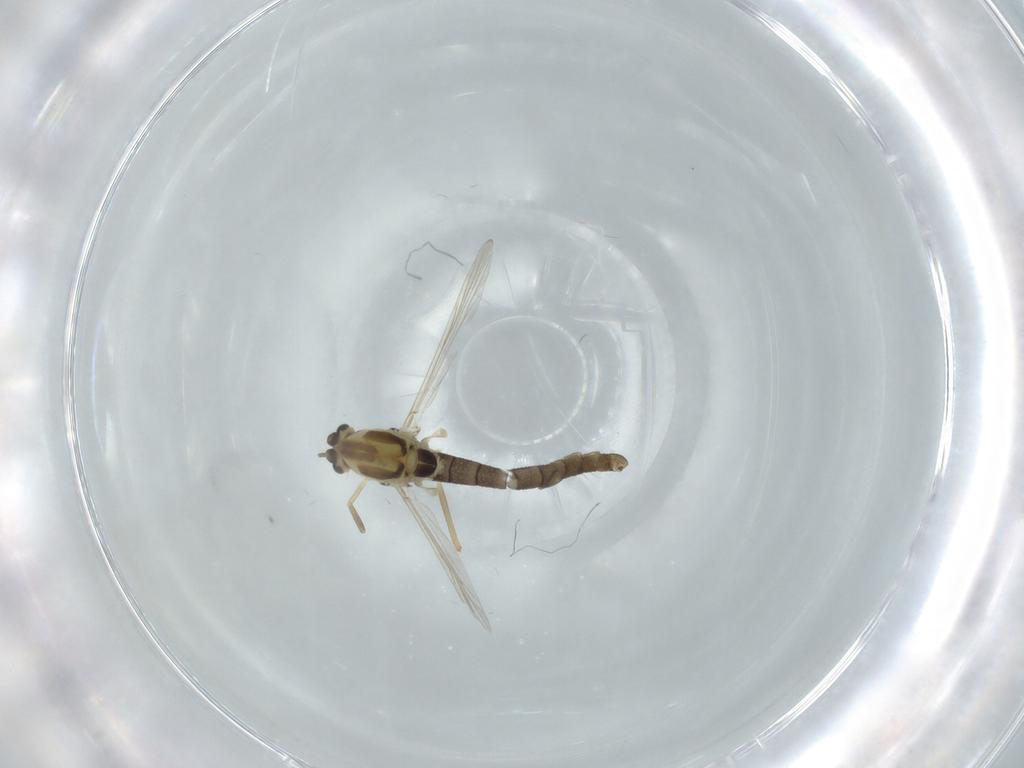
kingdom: Animalia
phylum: Arthropoda
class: Insecta
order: Diptera
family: Chironomidae
